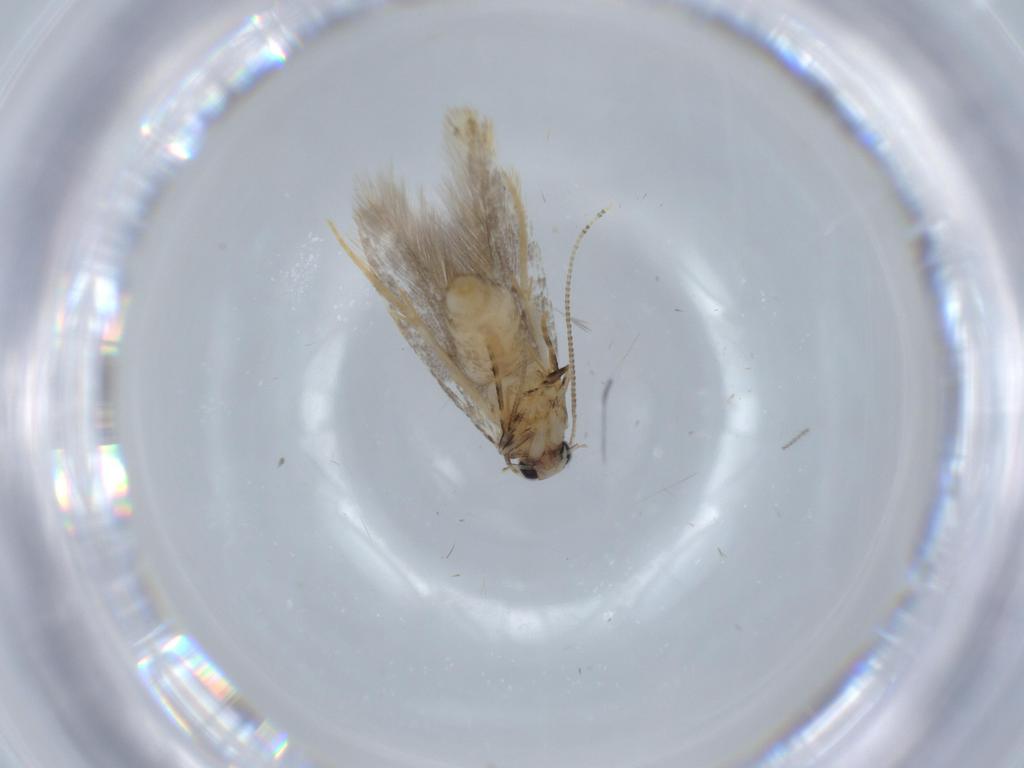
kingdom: Animalia
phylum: Arthropoda
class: Insecta
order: Lepidoptera
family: Tineidae
